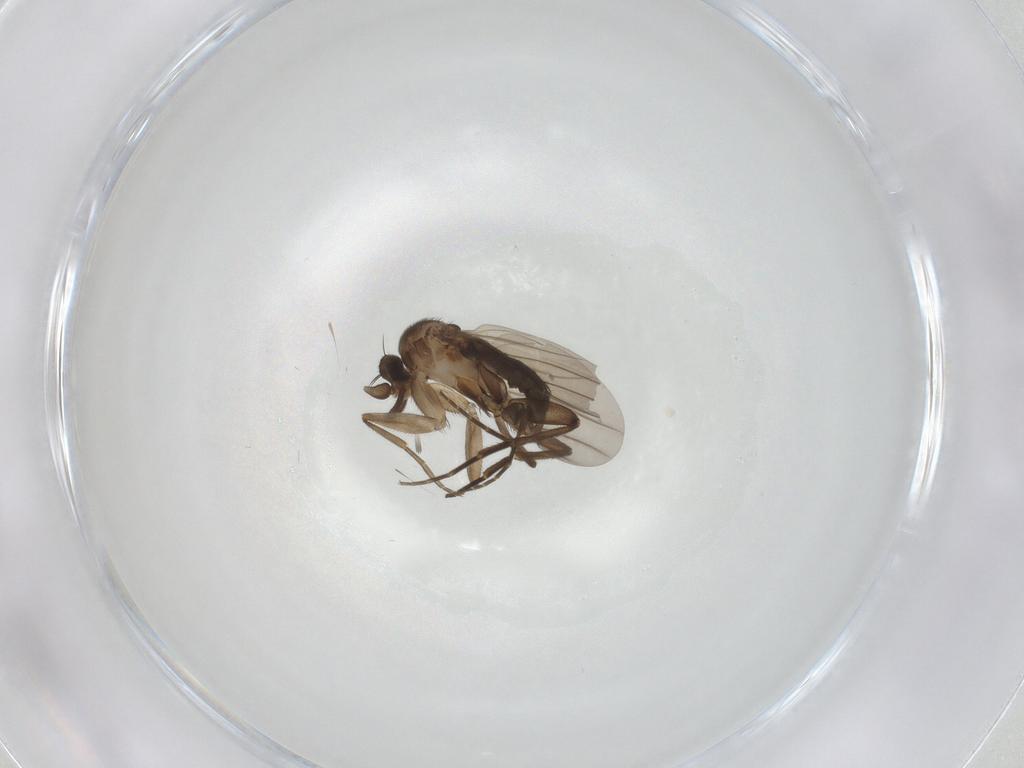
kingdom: Animalia
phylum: Arthropoda
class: Insecta
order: Diptera
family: Phoridae
